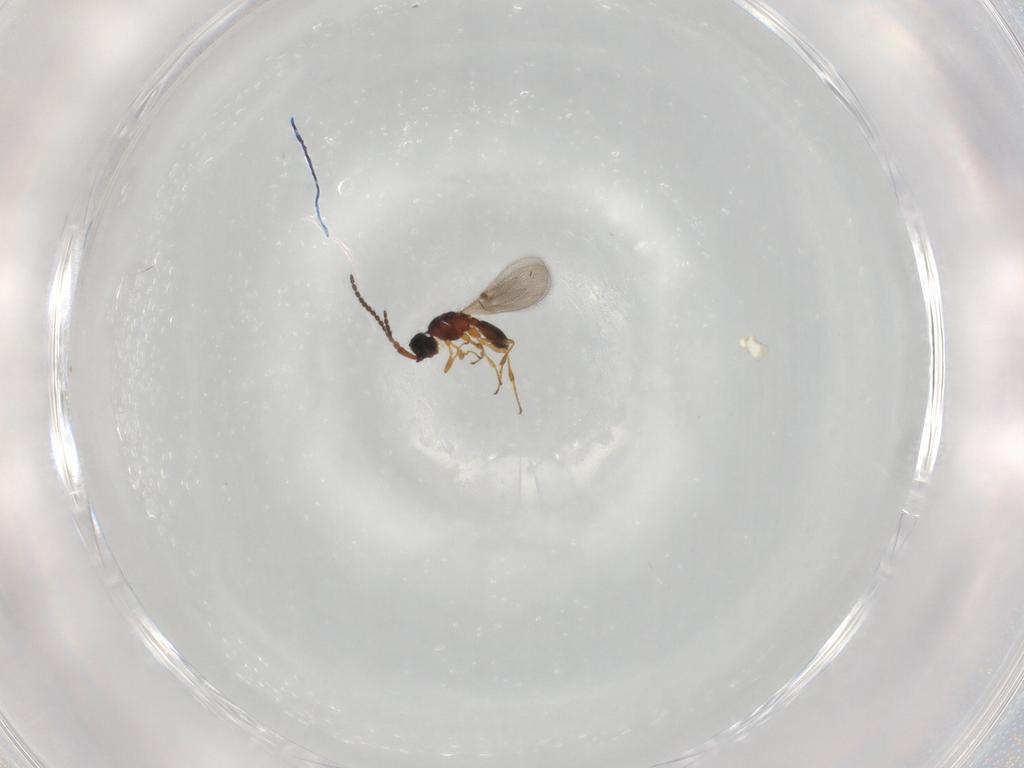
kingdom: Animalia
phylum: Arthropoda
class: Insecta
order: Hymenoptera
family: Diapriidae
